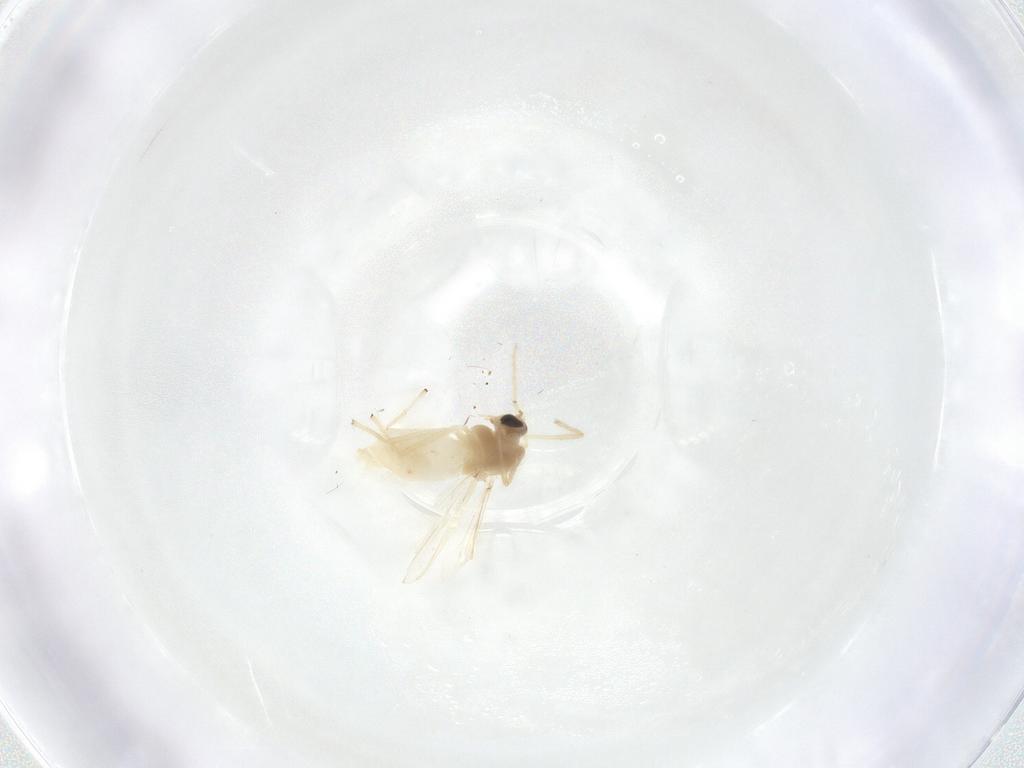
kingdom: Animalia
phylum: Arthropoda
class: Insecta
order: Diptera
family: Chironomidae
